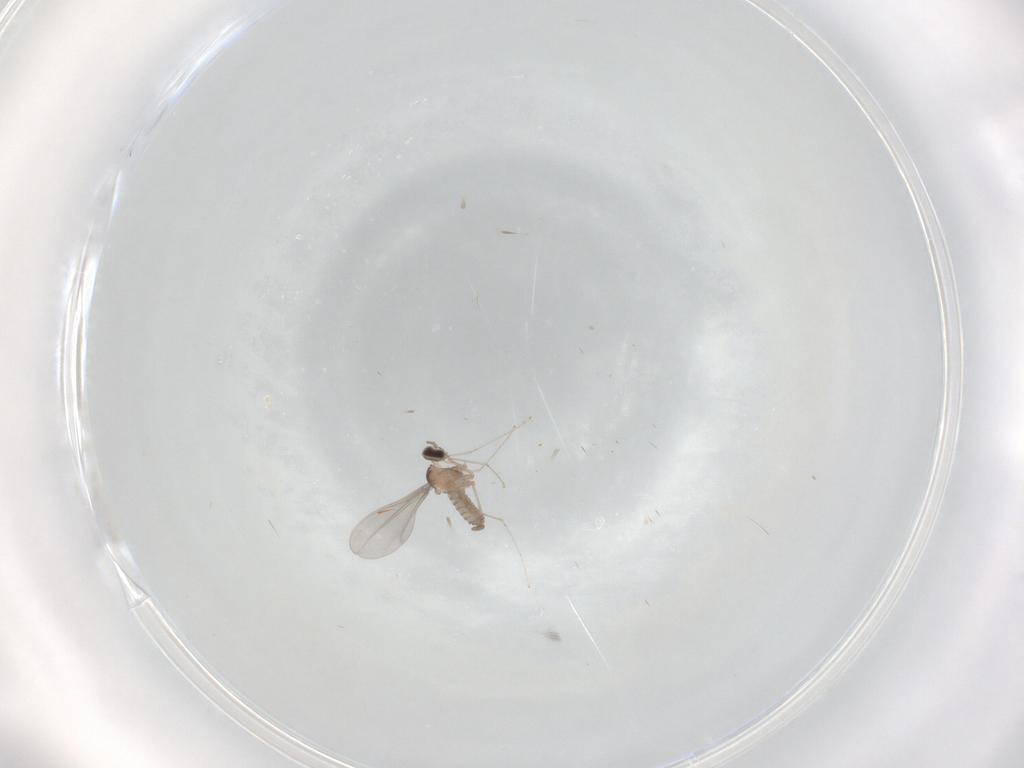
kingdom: Animalia
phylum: Arthropoda
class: Insecta
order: Diptera
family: Cecidomyiidae
